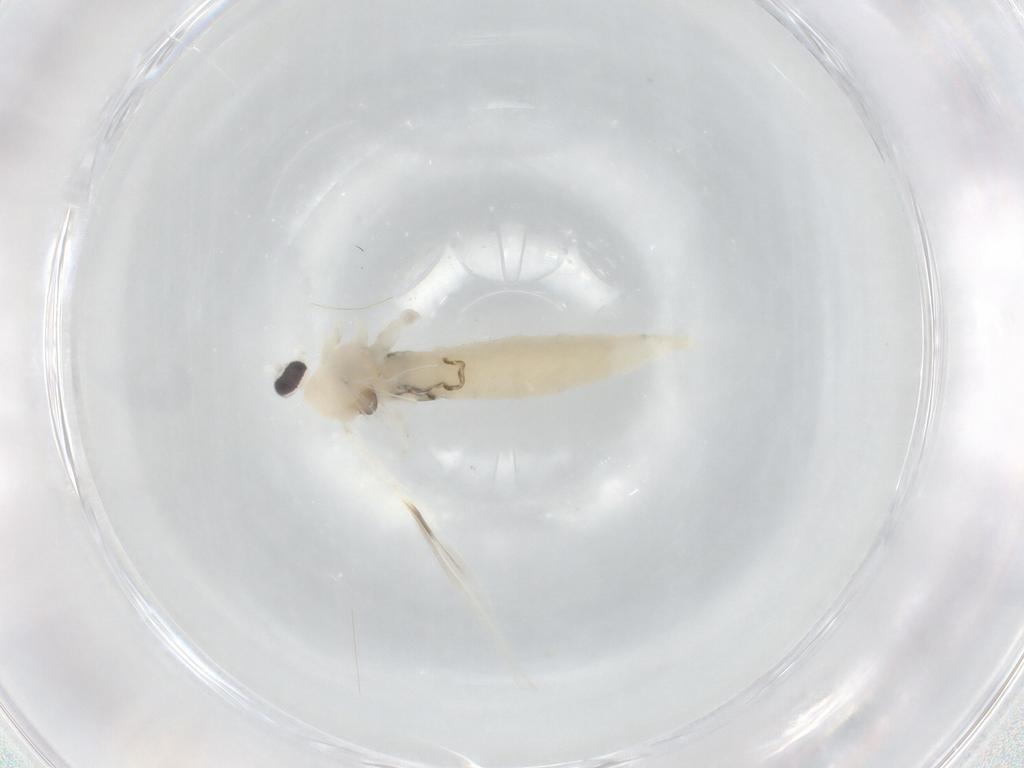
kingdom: Animalia
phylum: Arthropoda
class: Insecta
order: Diptera
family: Cecidomyiidae
